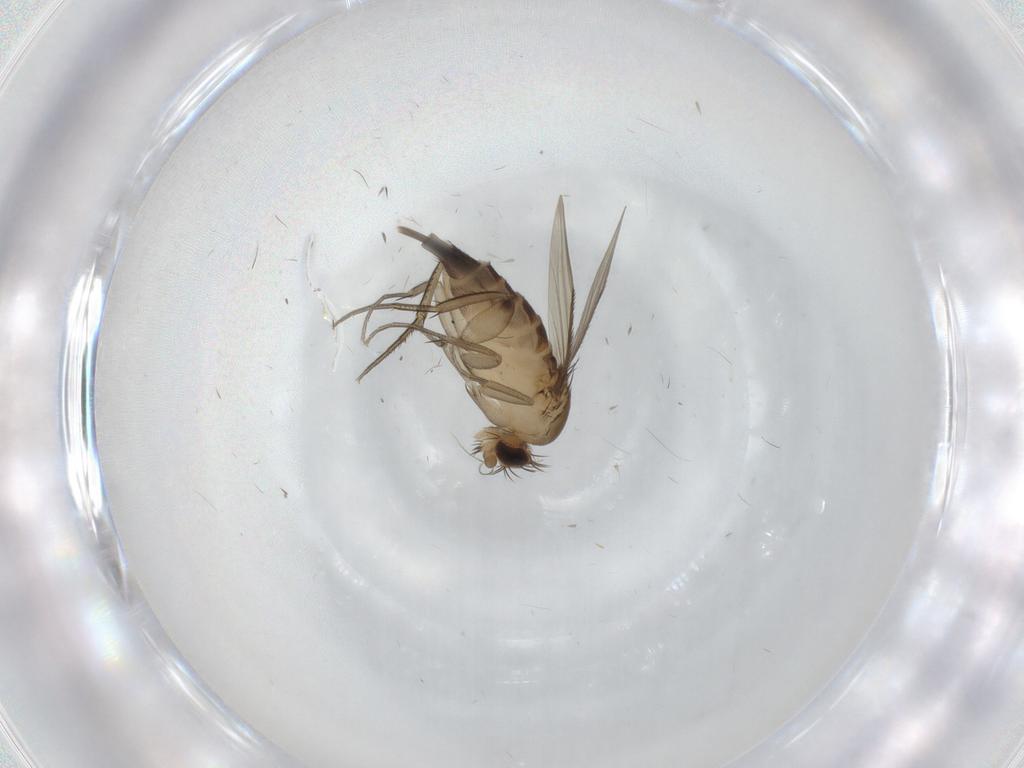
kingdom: Animalia
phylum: Arthropoda
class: Insecta
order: Diptera
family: Ceratopogonidae
